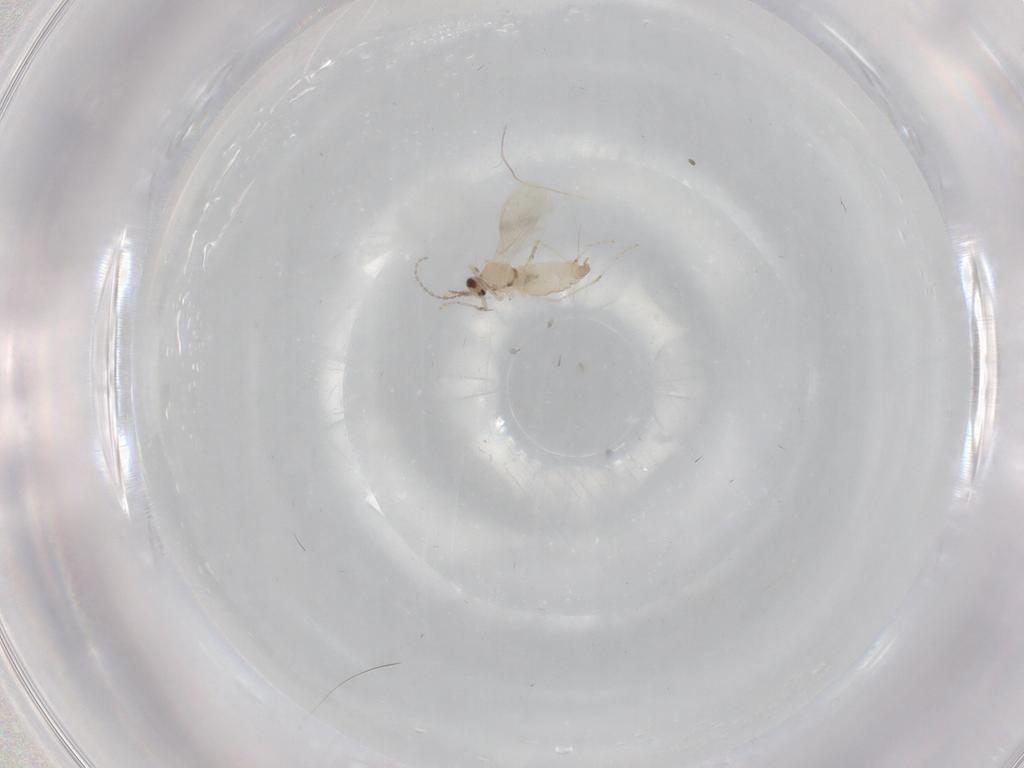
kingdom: Animalia
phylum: Arthropoda
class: Insecta
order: Diptera
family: Cecidomyiidae
